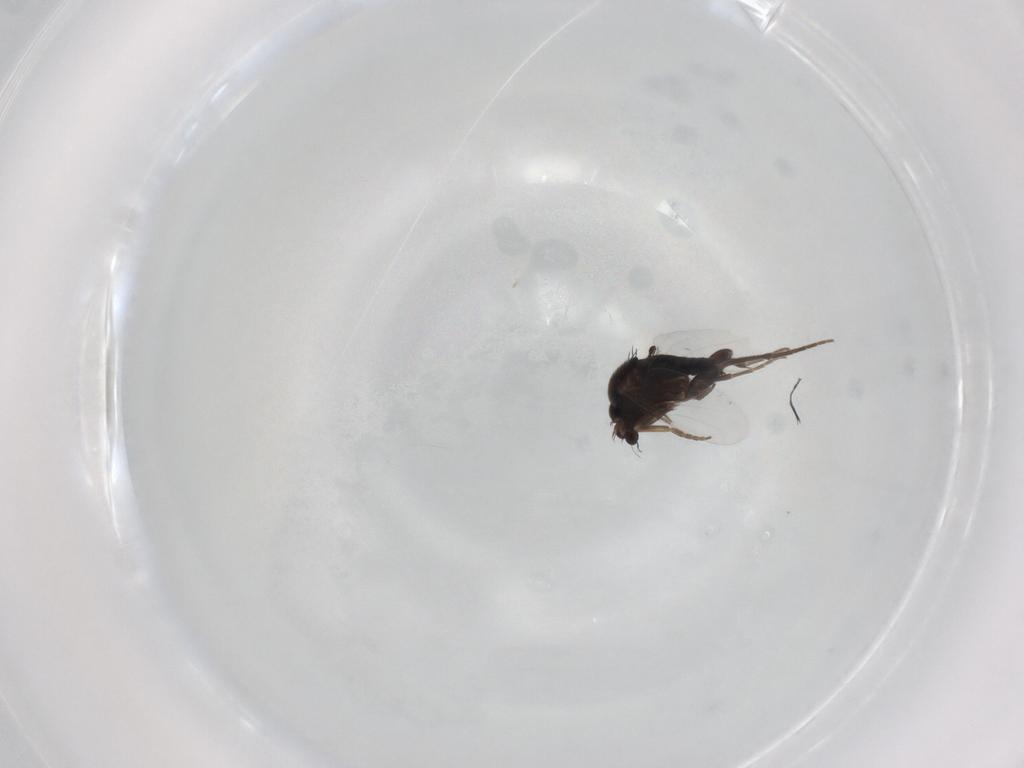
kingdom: Animalia
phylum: Arthropoda
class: Insecta
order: Diptera
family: Phoridae
